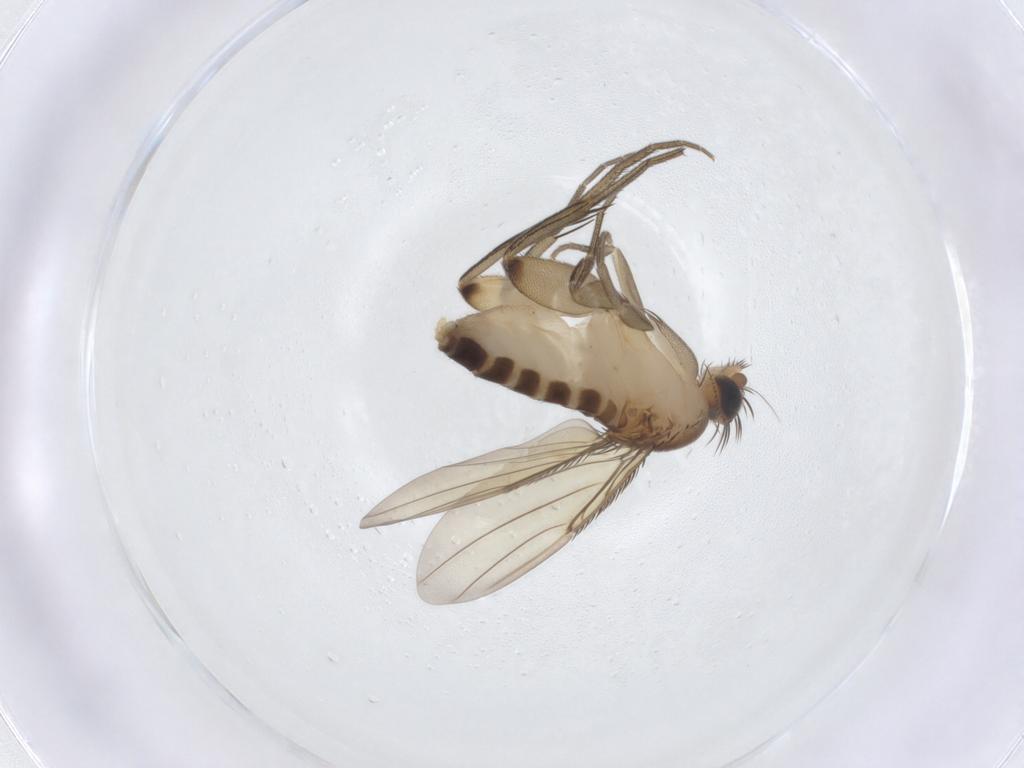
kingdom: Animalia
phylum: Arthropoda
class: Insecta
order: Diptera
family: Phoridae
